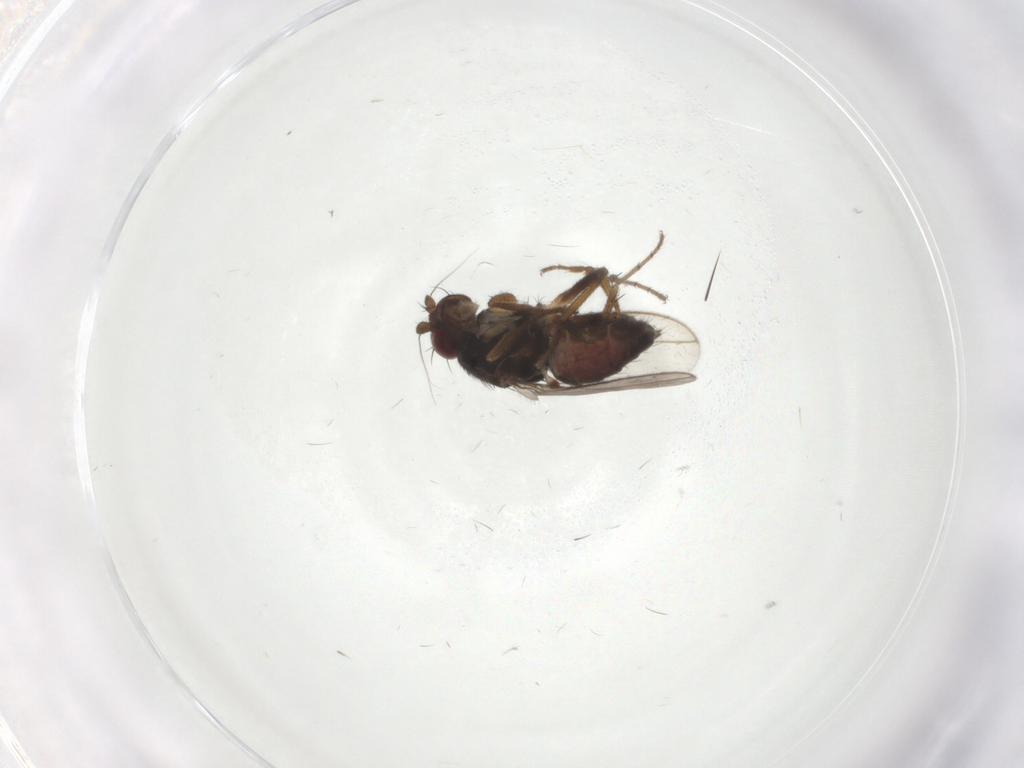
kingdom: Animalia
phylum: Arthropoda
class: Insecta
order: Diptera
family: Sphaeroceridae
